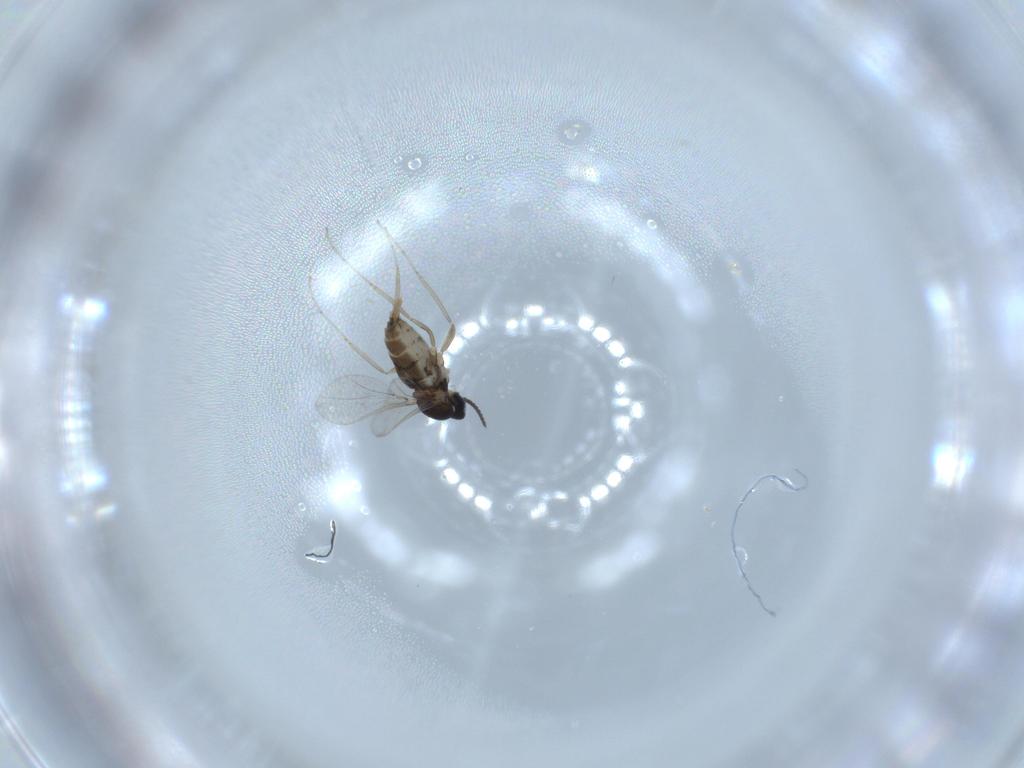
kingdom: Animalia
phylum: Arthropoda
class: Insecta
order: Diptera
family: Cecidomyiidae
